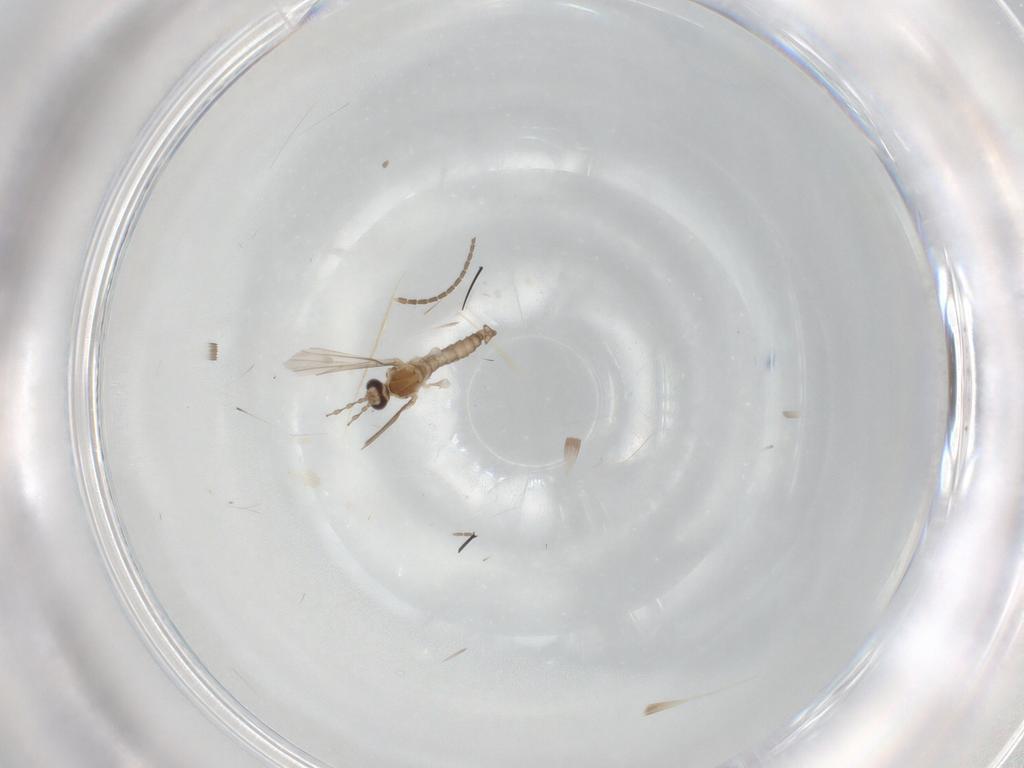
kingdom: Animalia
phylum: Arthropoda
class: Insecta
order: Diptera
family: Sciaridae
